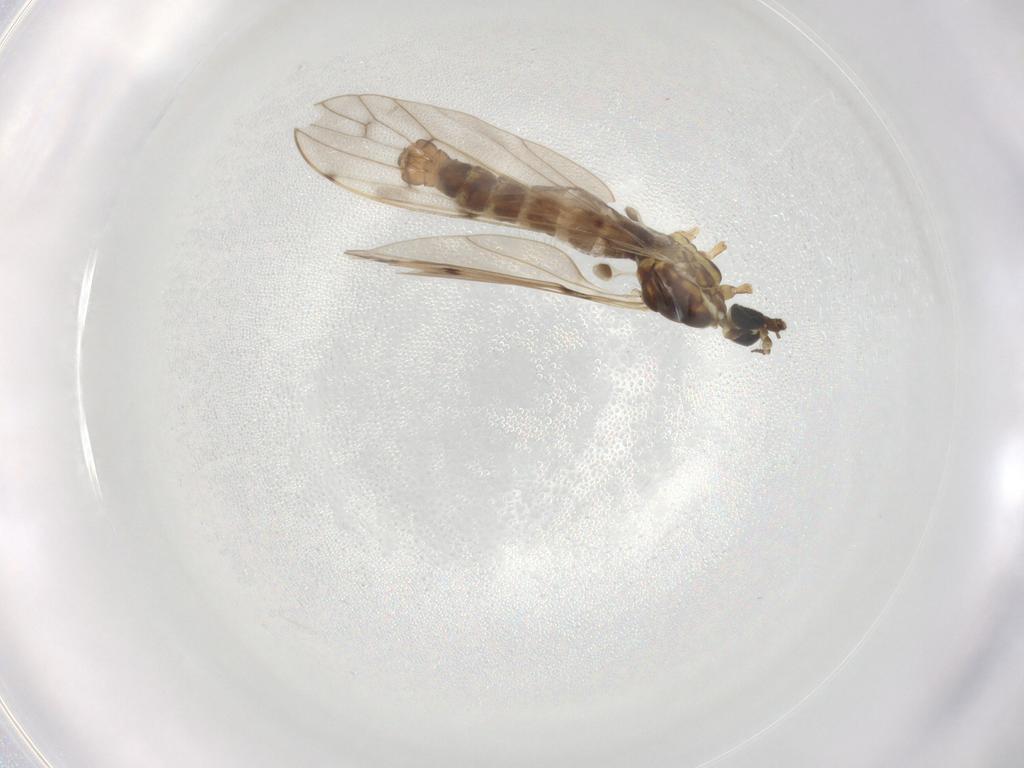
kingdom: Animalia
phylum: Arthropoda
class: Insecta
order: Diptera
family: Limoniidae
